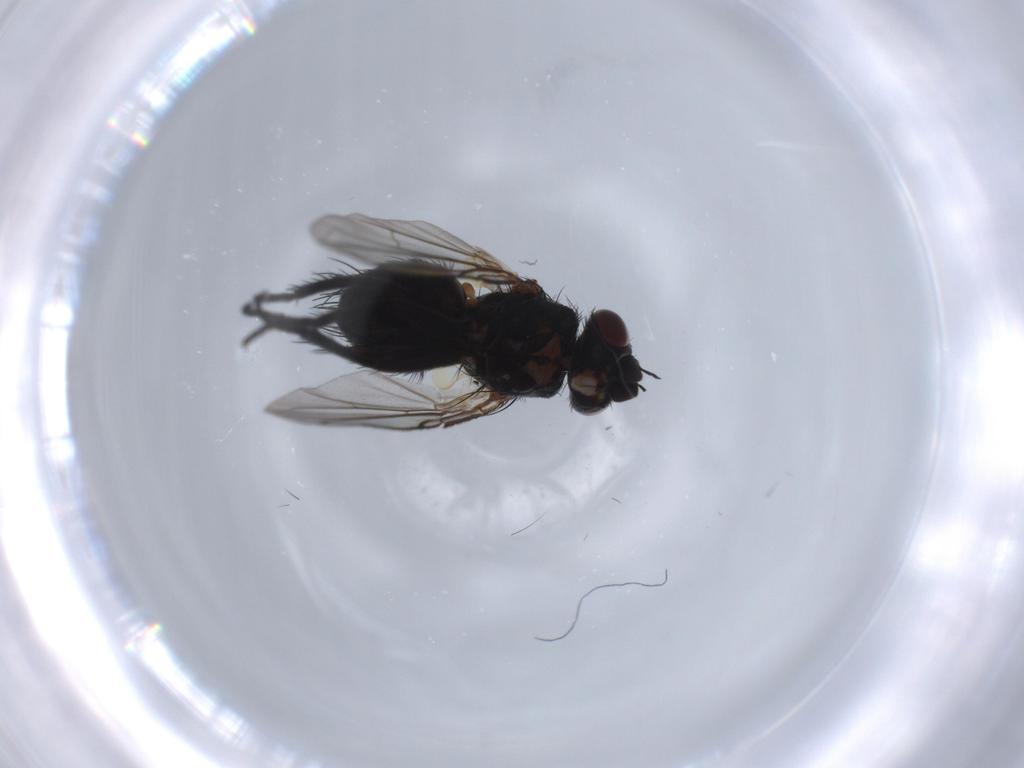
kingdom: Animalia
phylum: Arthropoda
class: Insecta
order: Diptera
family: Tachinidae
